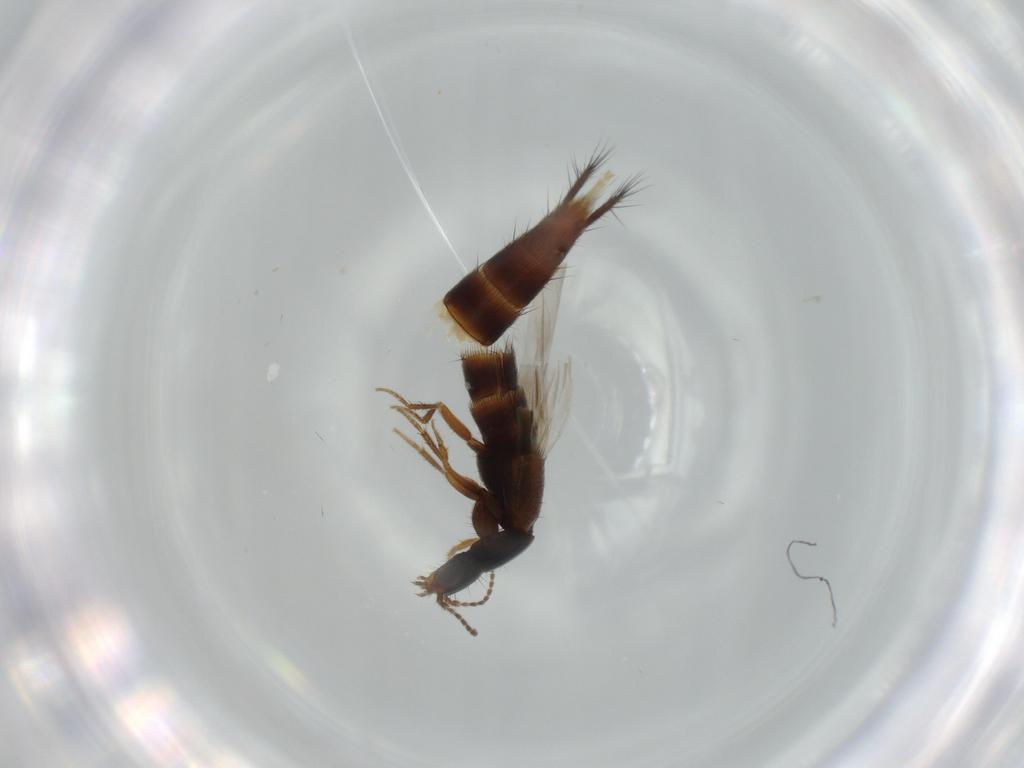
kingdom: Animalia
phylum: Arthropoda
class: Insecta
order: Coleoptera
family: Staphylinidae
